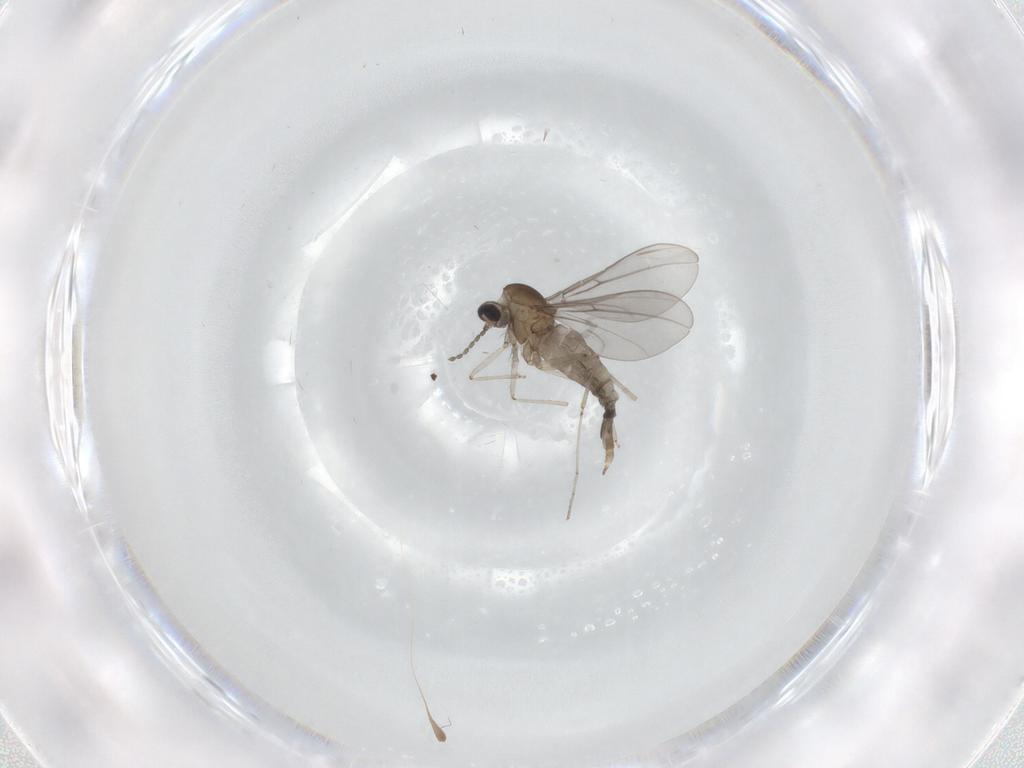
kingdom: Animalia
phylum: Arthropoda
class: Insecta
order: Diptera
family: Cecidomyiidae
